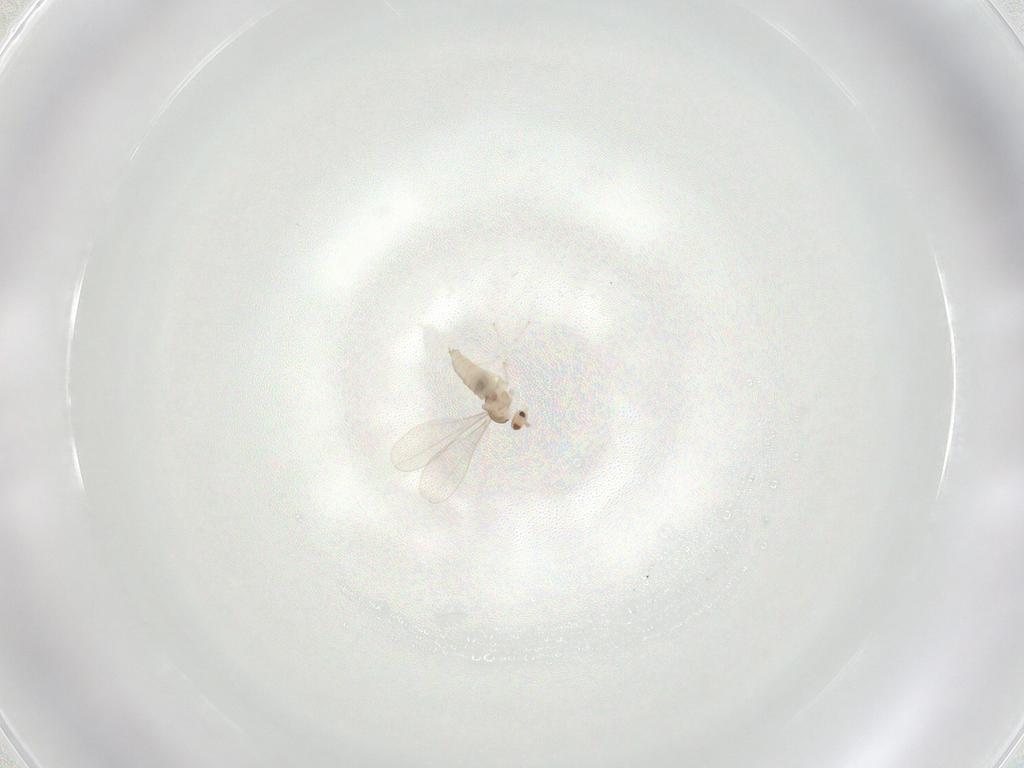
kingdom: Animalia
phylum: Arthropoda
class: Insecta
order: Diptera
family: Cecidomyiidae
